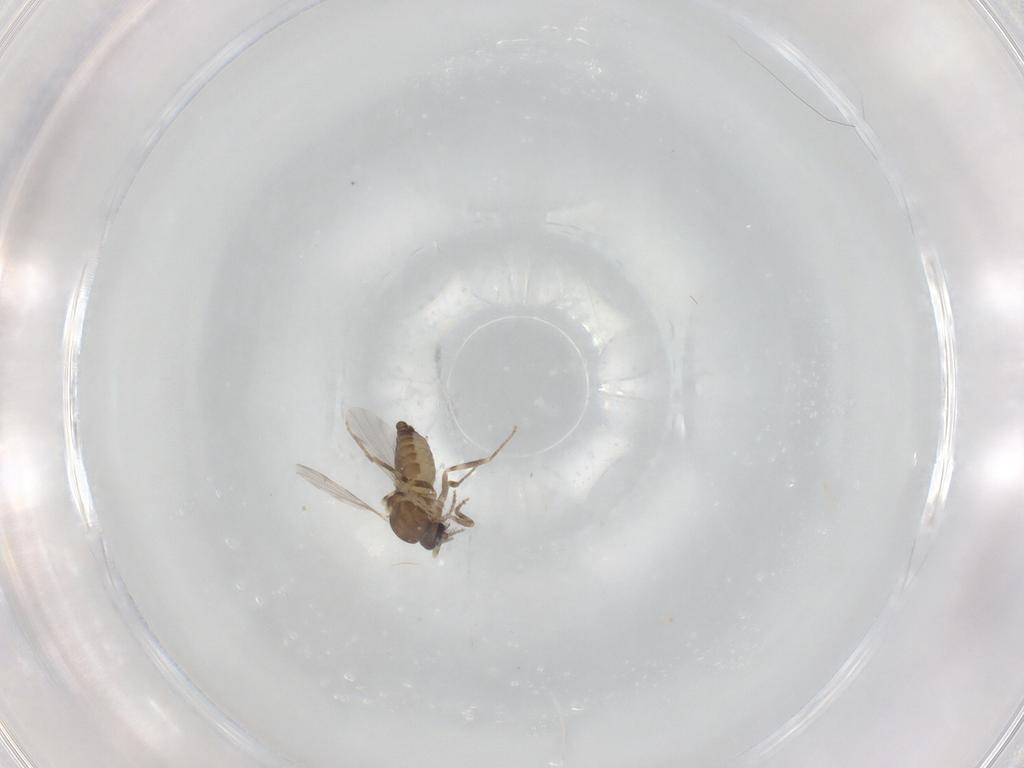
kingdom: Animalia
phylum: Arthropoda
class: Insecta
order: Diptera
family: Ceratopogonidae
